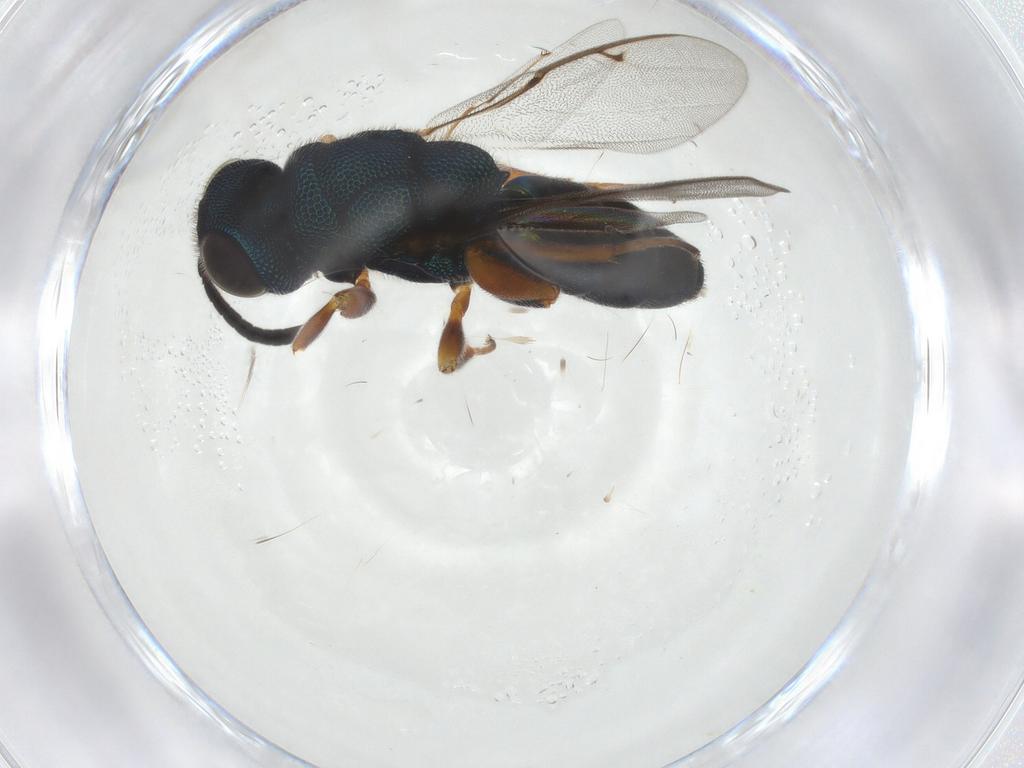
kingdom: Animalia
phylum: Arthropoda
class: Insecta
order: Hymenoptera
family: Lyciscidae
